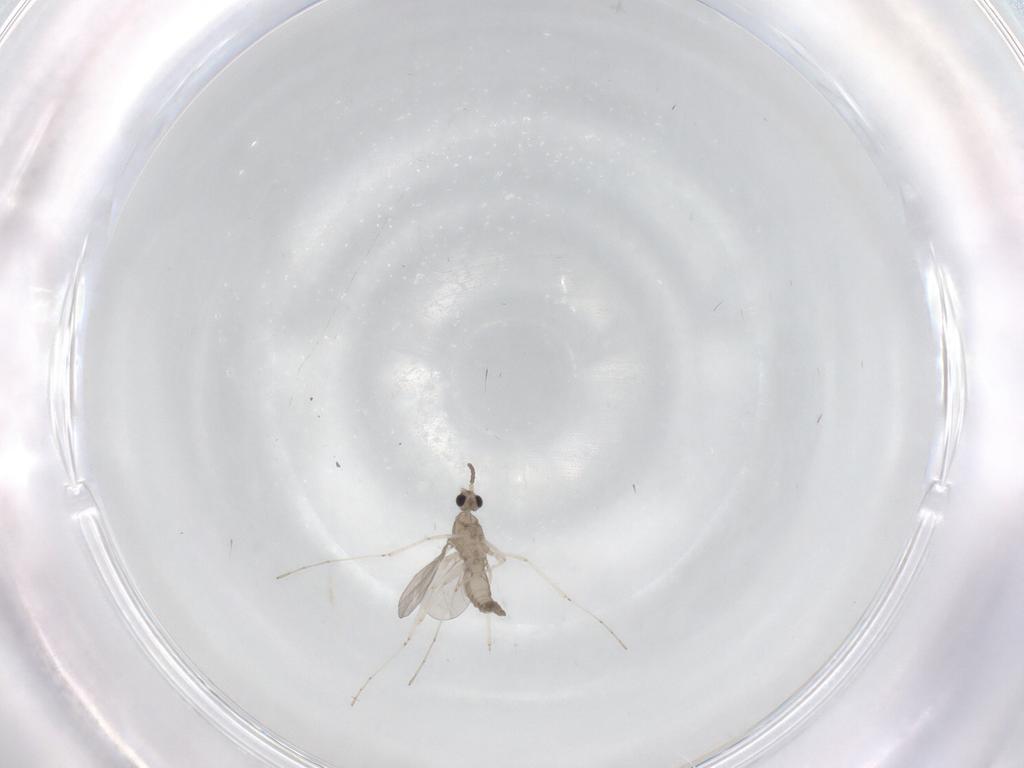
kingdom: Animalia
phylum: Arthropoda
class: Insecta
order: Diptera
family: Cecidomyiidae
